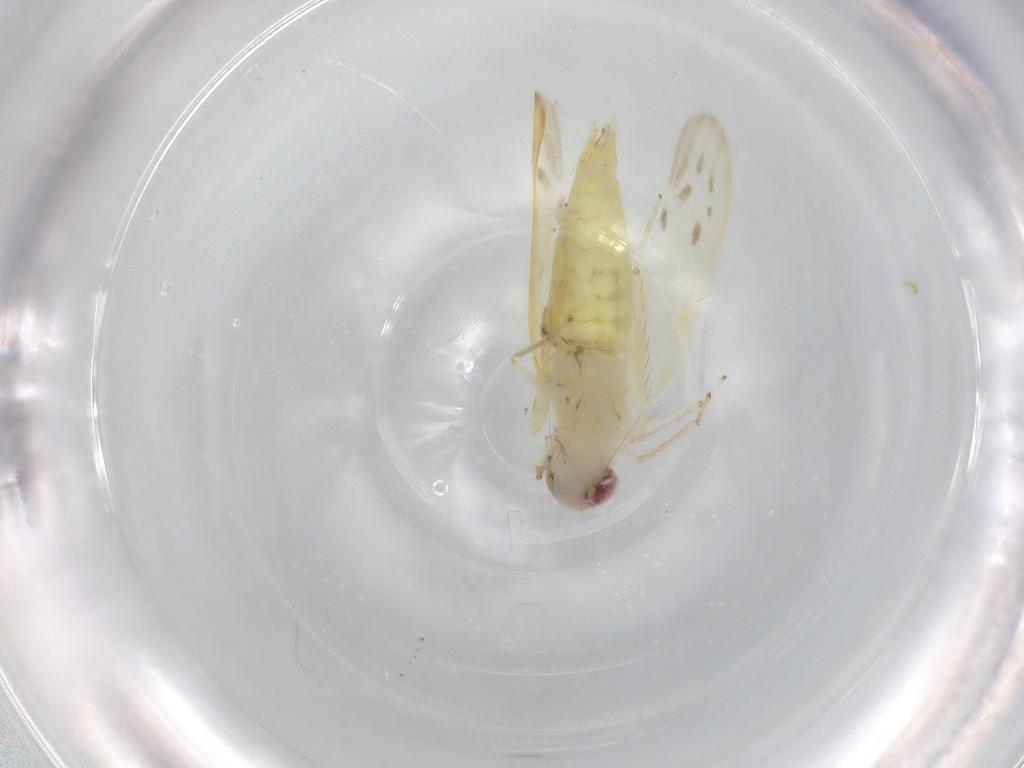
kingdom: Animalia
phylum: Arthropoda
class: Insecta
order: Hemiptera
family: Cicadellidae
